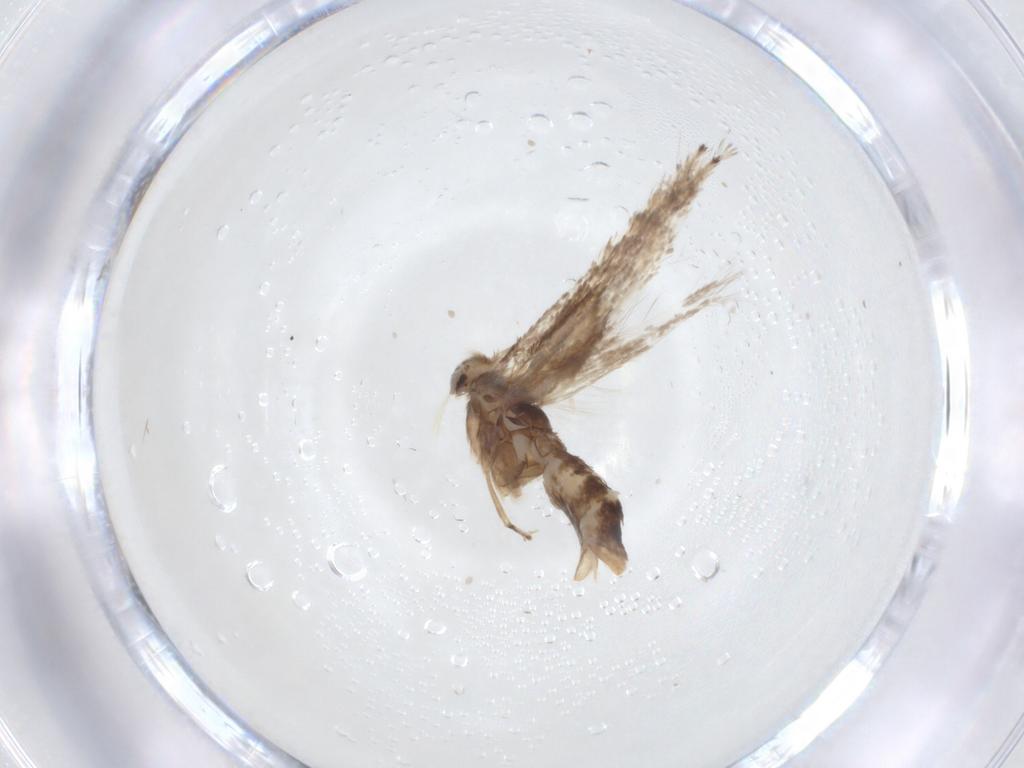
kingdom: Animalia
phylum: Arthropoda
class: Insecta
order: Lepidoptera
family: Gracillariidae
